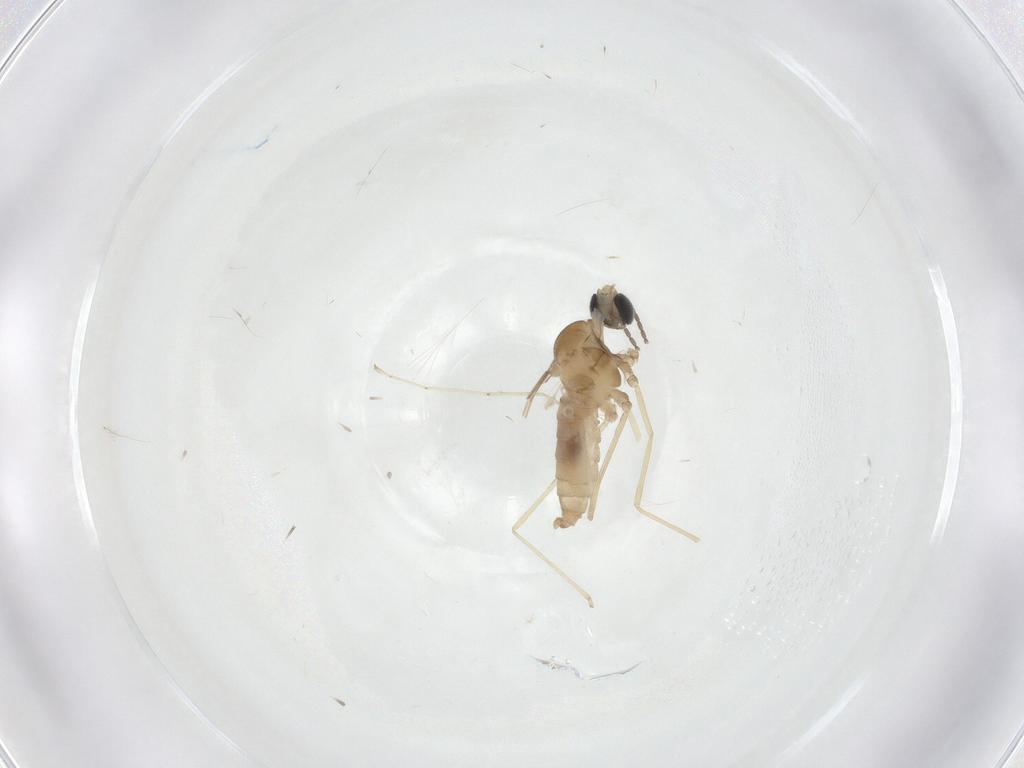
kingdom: Animalia
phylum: Arthropoda
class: Insecta
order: Diptera
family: Cecidomyiidae
